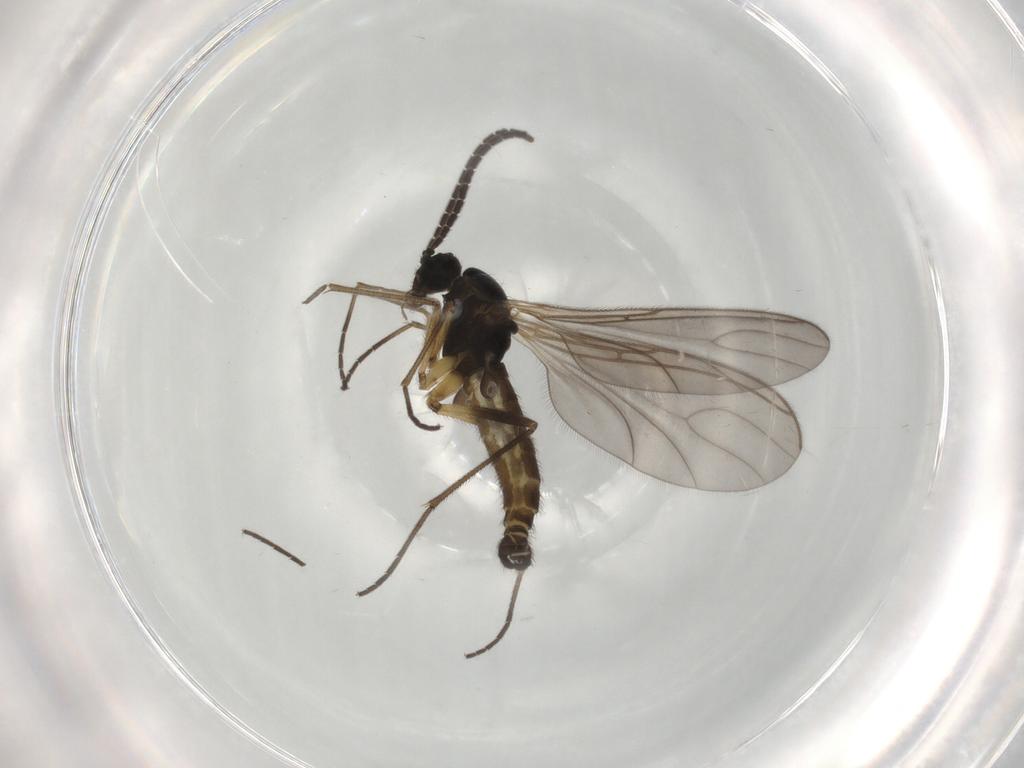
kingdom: Animalia
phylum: Arthropoda
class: Insecta
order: Diptera
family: Sciaridae
